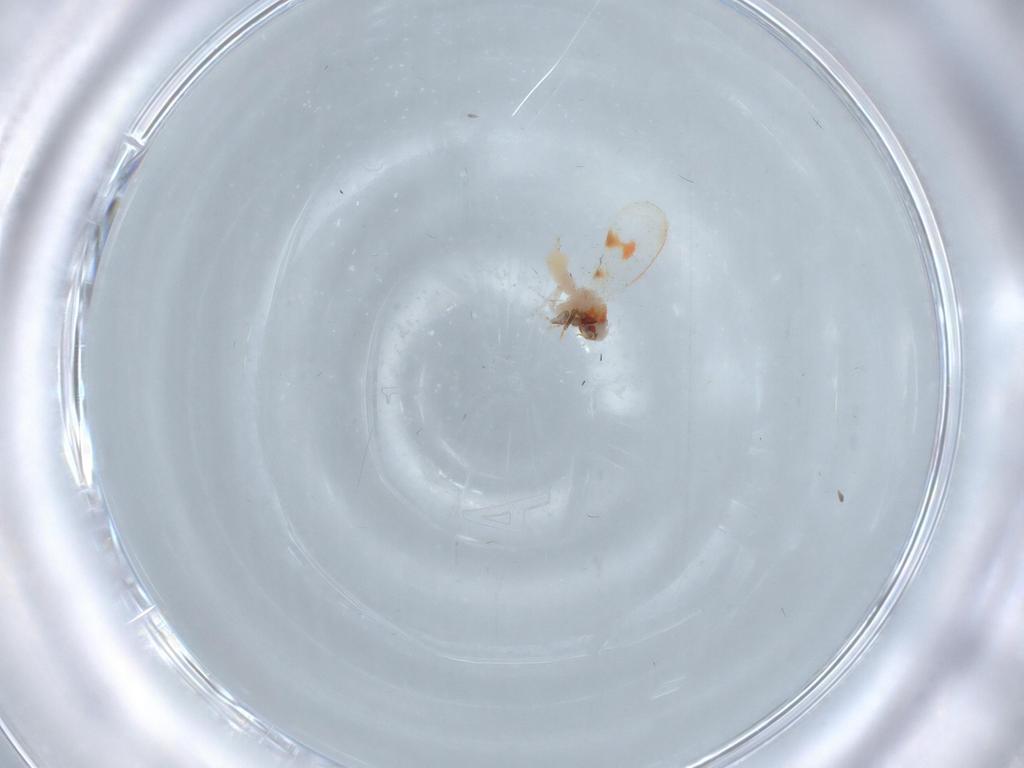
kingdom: Animalia
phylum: Arthropoda
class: Insecta
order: Hemiptera
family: Aleyrodidae
